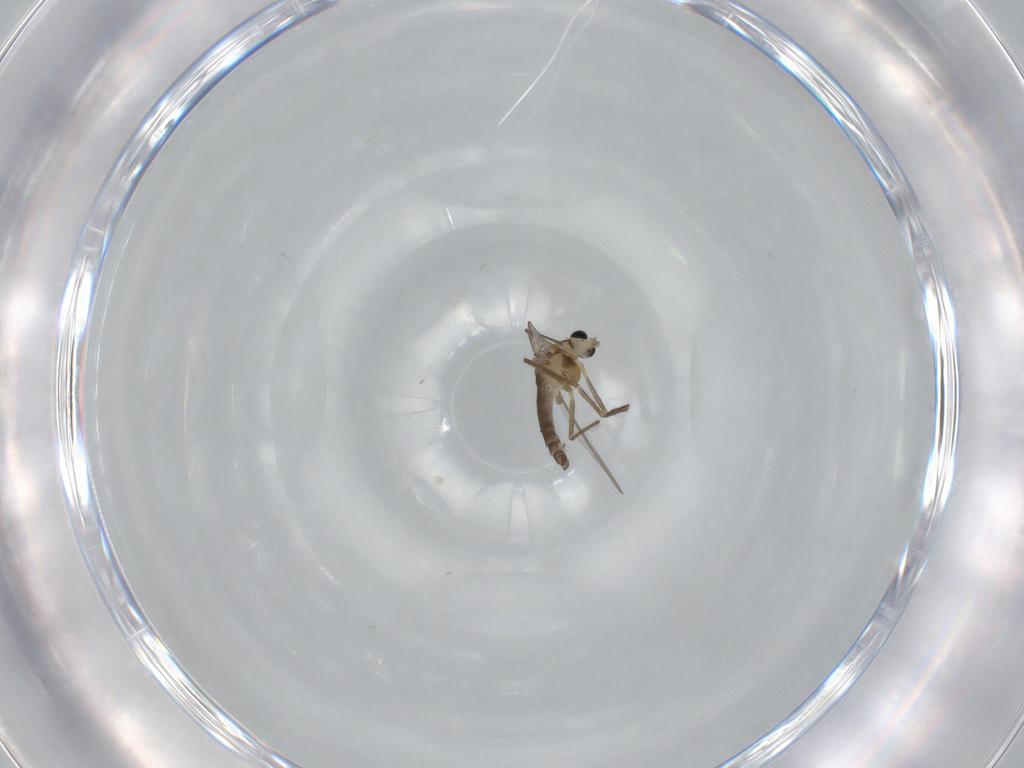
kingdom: Animalia
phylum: Arthropoda
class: Insecta
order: Diptera
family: Chironomidae
